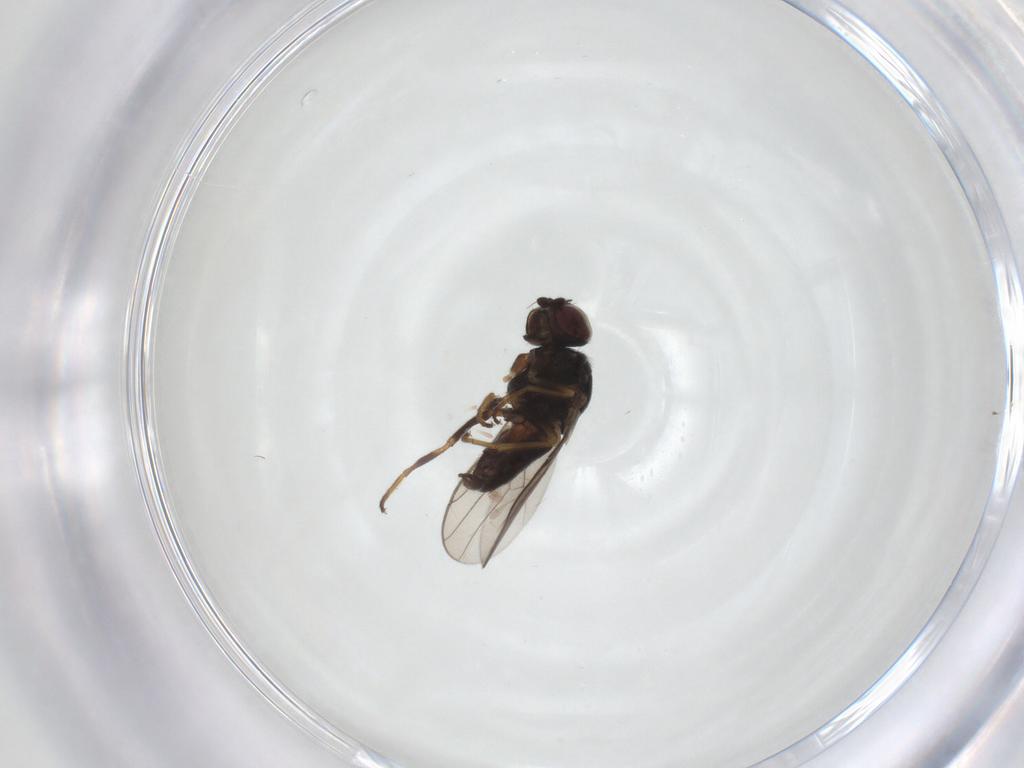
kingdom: Animalia
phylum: Arthropoda
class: Insecta
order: Diptera
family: Chloropidae
